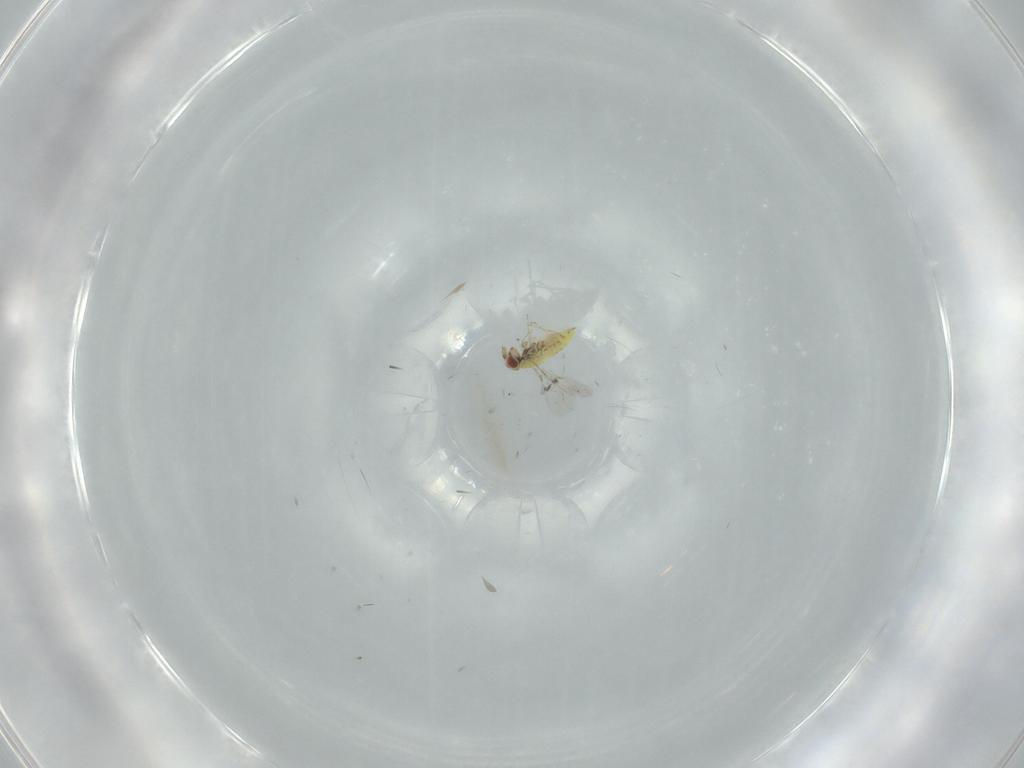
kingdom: Animalia
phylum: Arthropoda
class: Insecta
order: Hymenoptera
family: Trichogrammatidae
